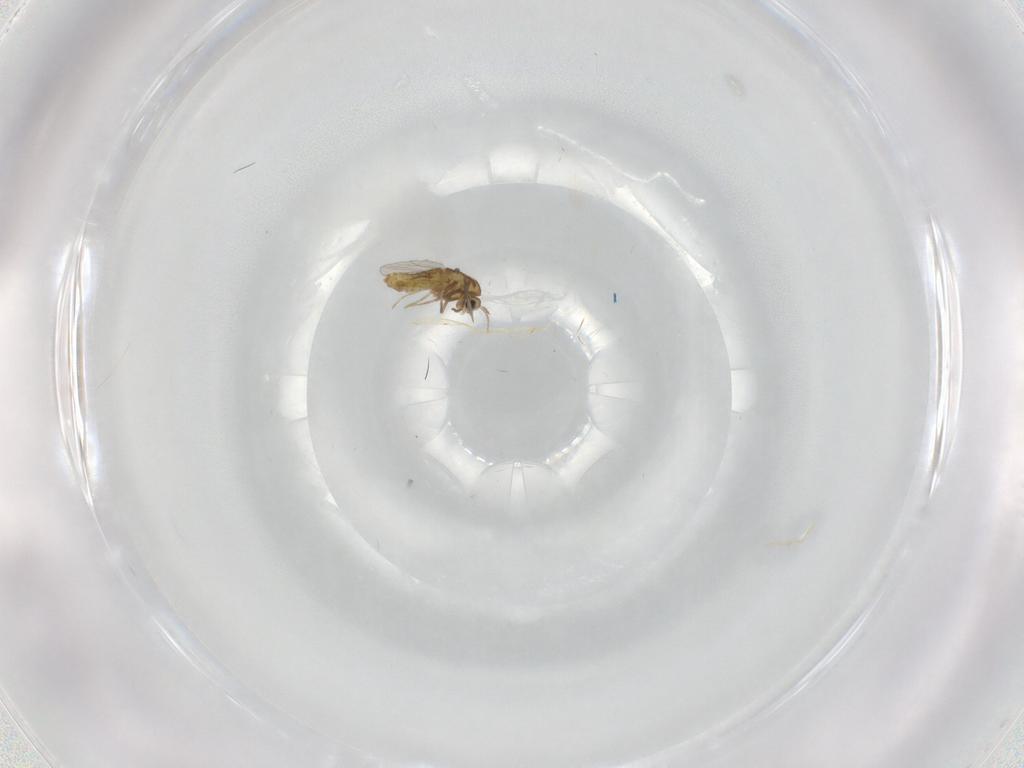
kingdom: Animalia
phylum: Arthropoda
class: Insecta
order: Diptera
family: Chironomidae
